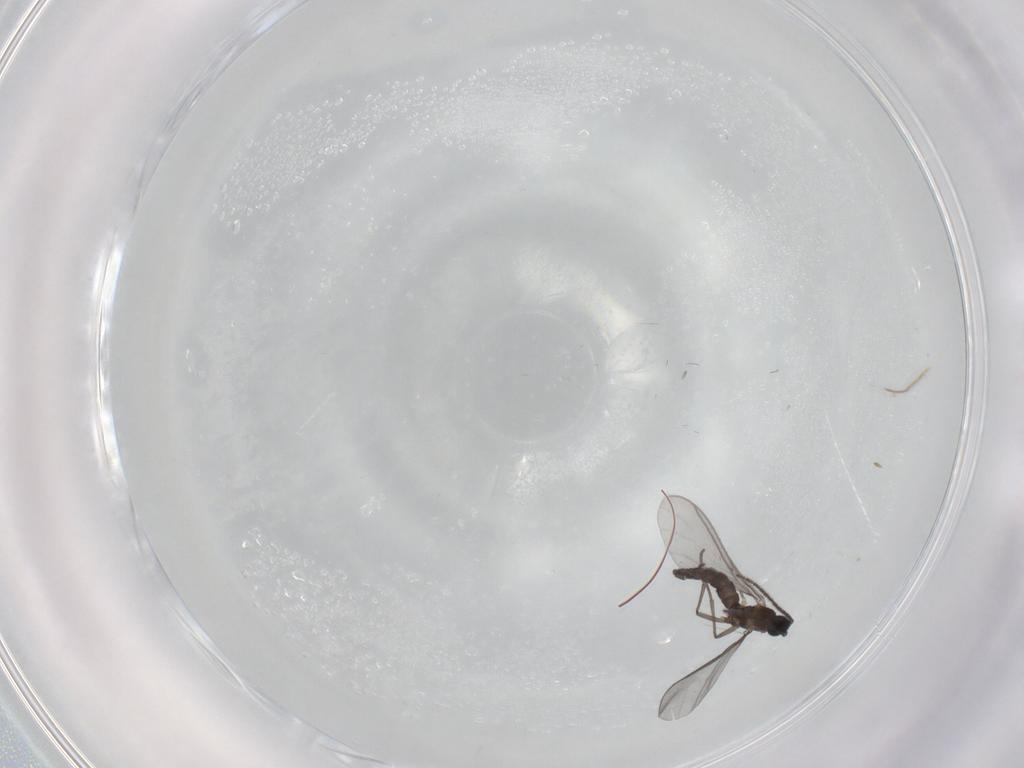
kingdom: Animalia
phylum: Arthropoda
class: Insecta
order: Diptera
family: Sciaridae
